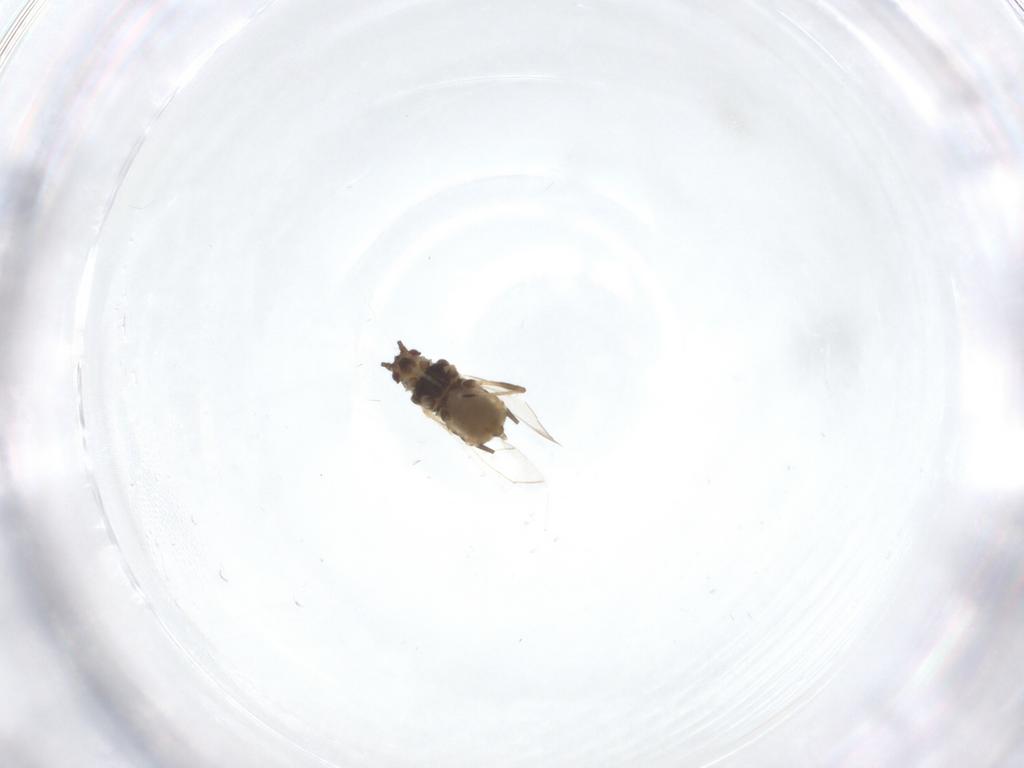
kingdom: Animalia
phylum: Arthropoda
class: Insecta
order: Hemiptera
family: Aphididae
